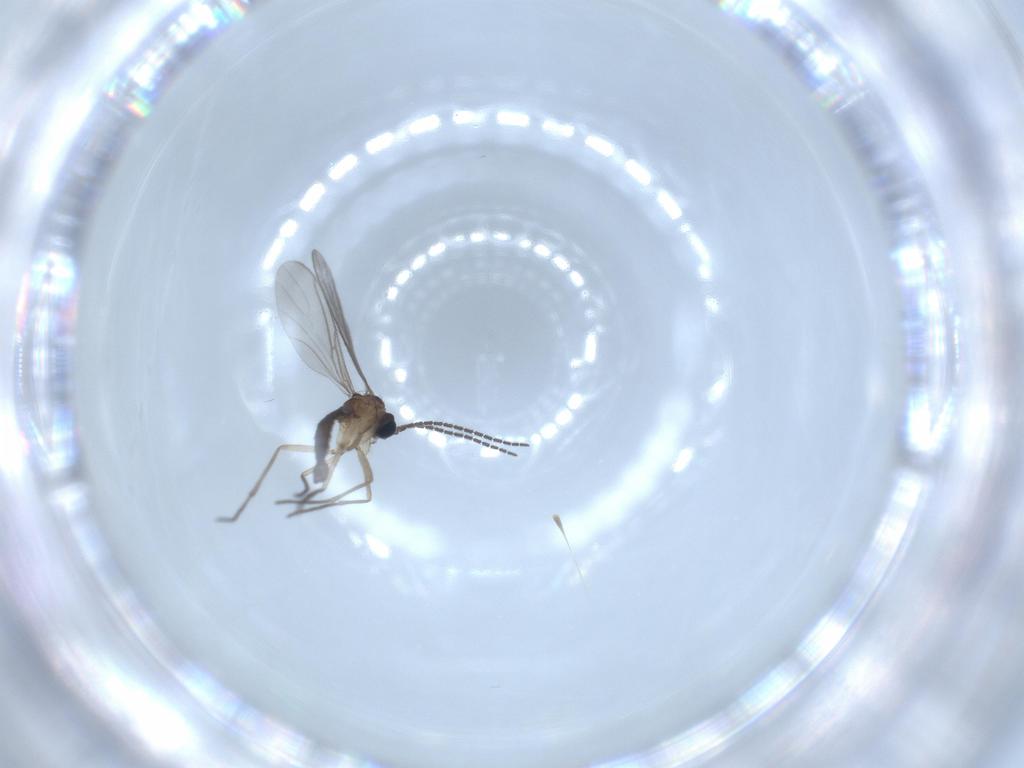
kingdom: Animalia
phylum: Arthropoda
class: Insecta
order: Diptera
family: Sciaridae
